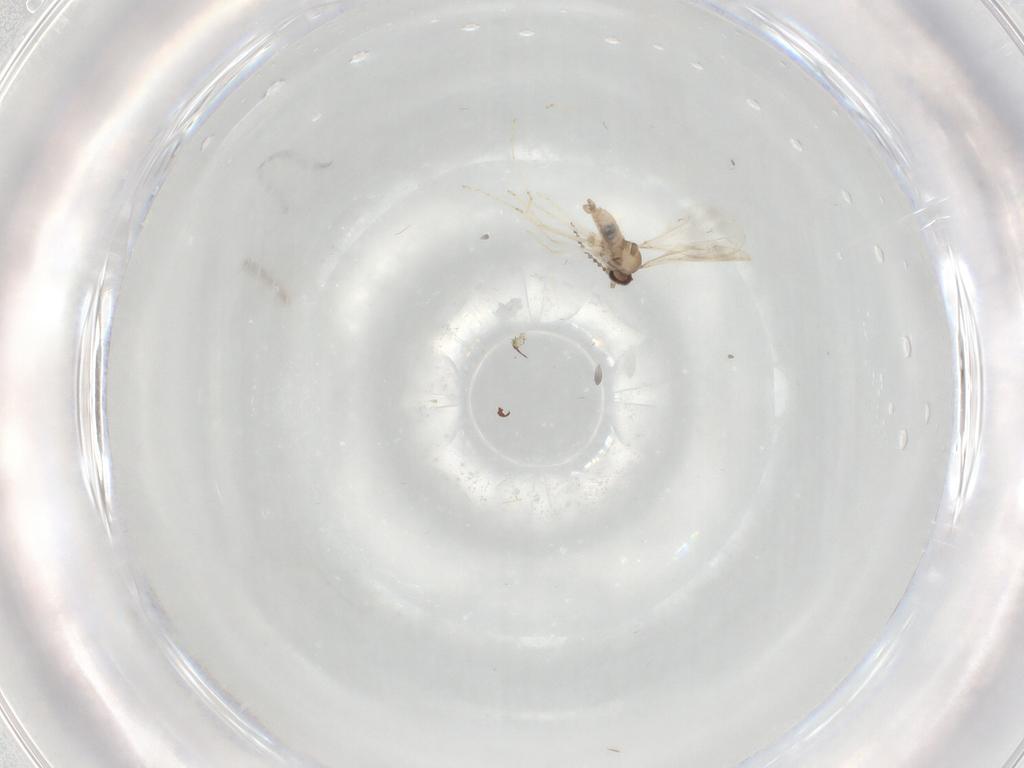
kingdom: Animalia
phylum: Arthropoda
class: Insecta
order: Diptera
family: Cecidomyiidae
